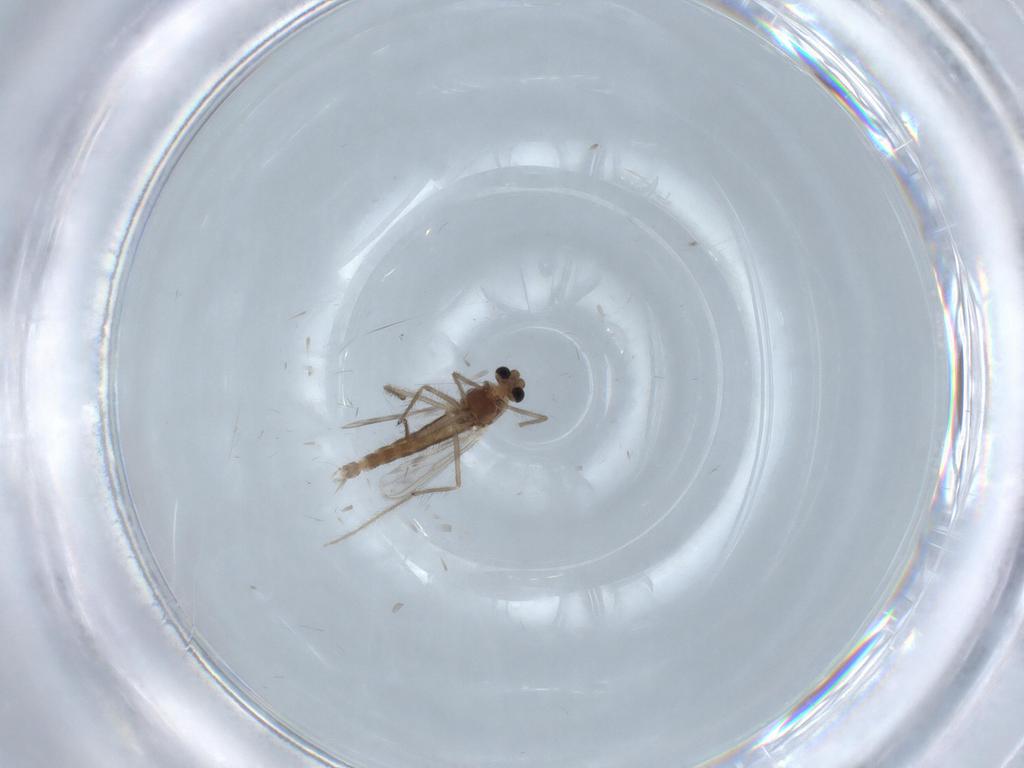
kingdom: Animalia
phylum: Arthropoda
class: Insecta
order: Diptera
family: Chironomidae
